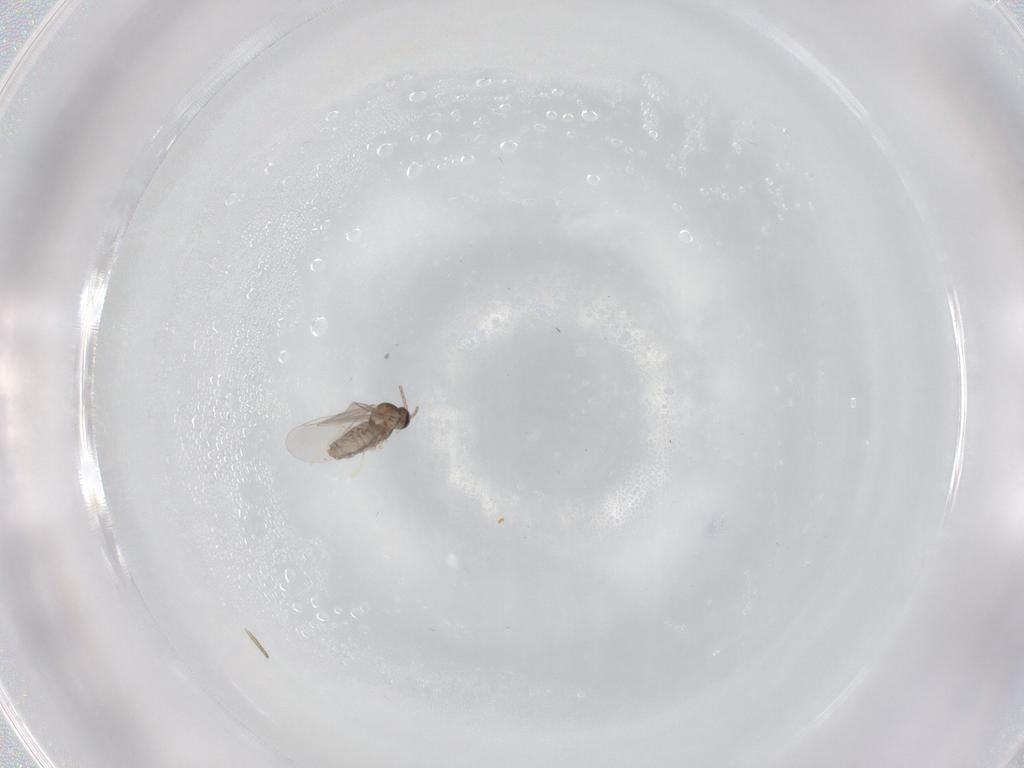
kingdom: Animalia
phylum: Arthropoda
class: Insecta
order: Diptera
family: Cecidomyiidae
